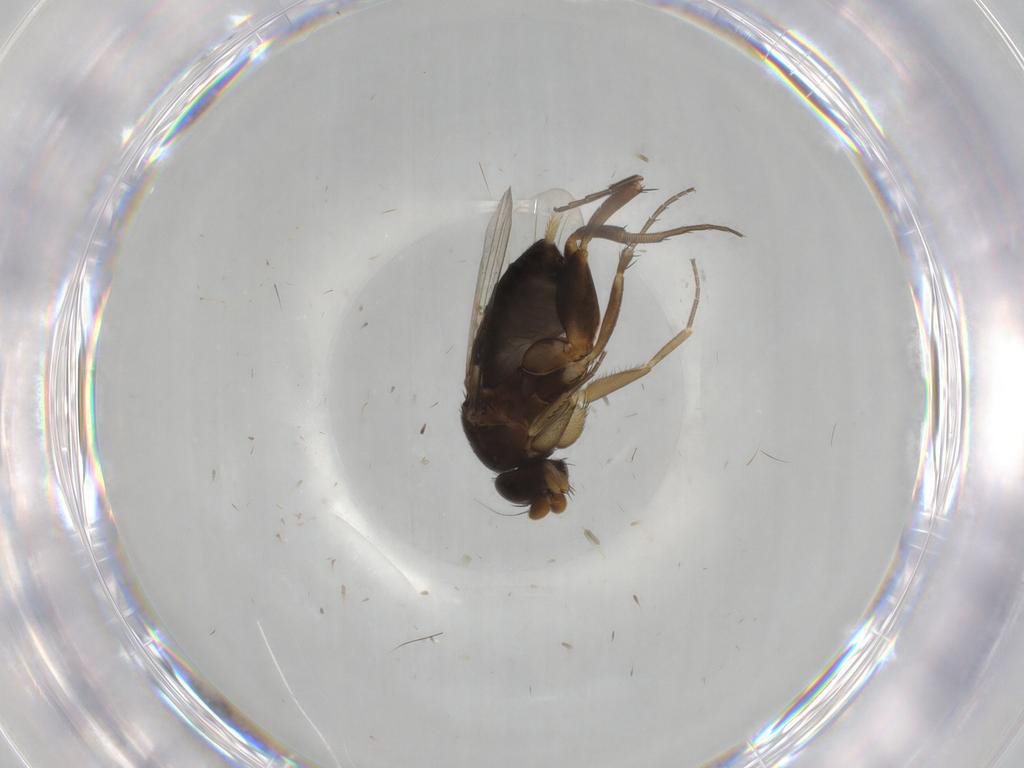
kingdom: Animalia
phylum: Arthropoda
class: Insecta
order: Diptera
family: Phoridae
